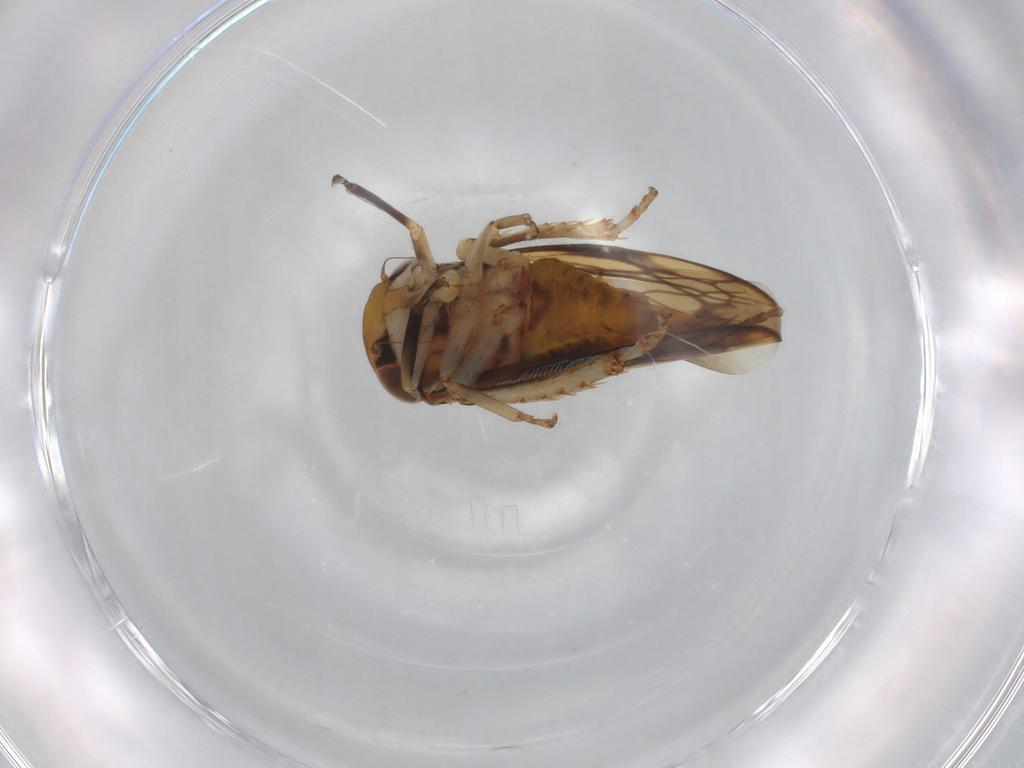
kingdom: Animalia
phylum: Arthropoda
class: Insecta
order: Hemiptera
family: Cicadellidae
